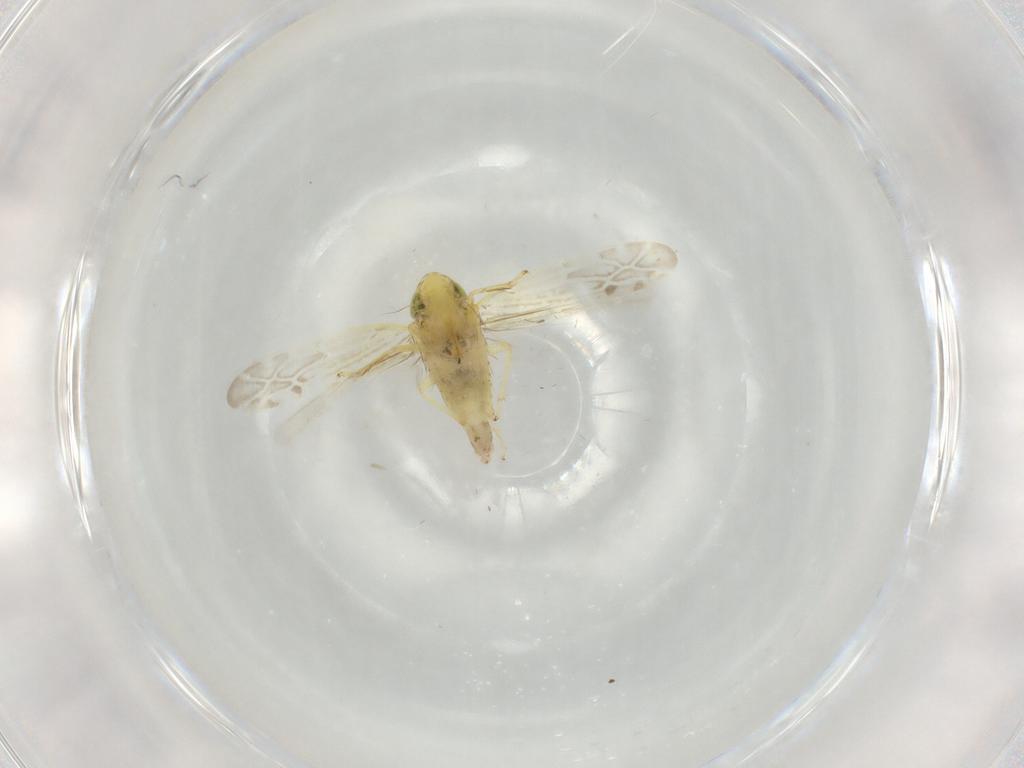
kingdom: Animalia
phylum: Arthropoda
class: Insecta
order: Hemiptera
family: Cicadellidae
